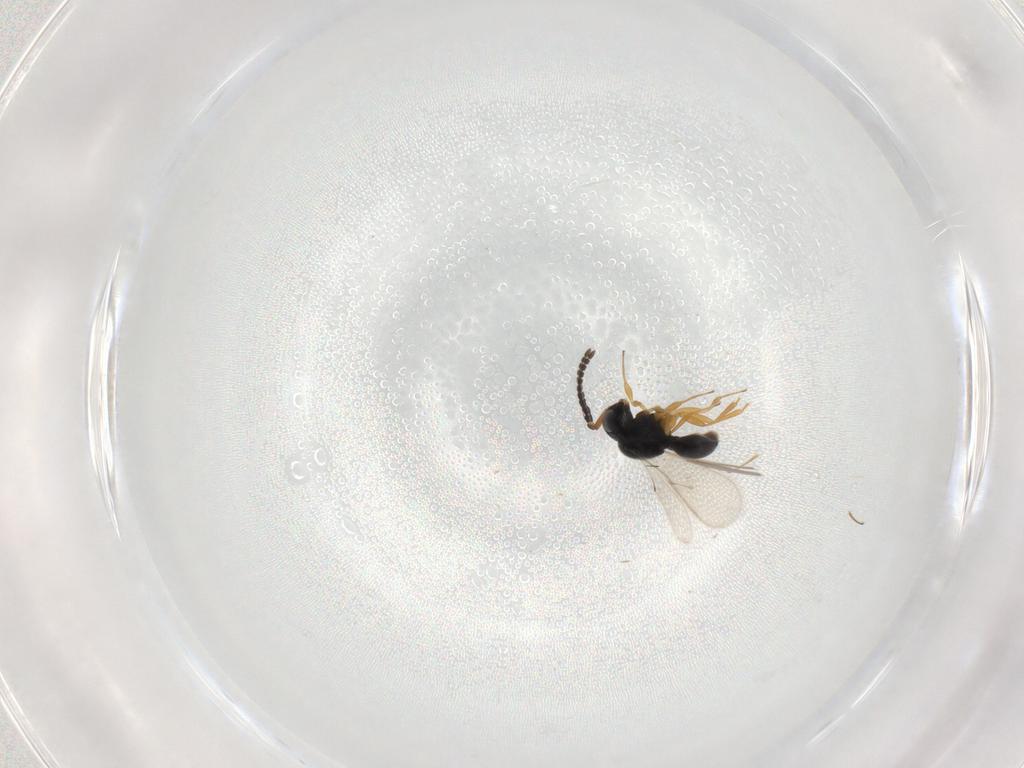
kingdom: Animalia
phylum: Arthropoda
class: Insecta
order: Hymenoptera
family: Scelionidae
